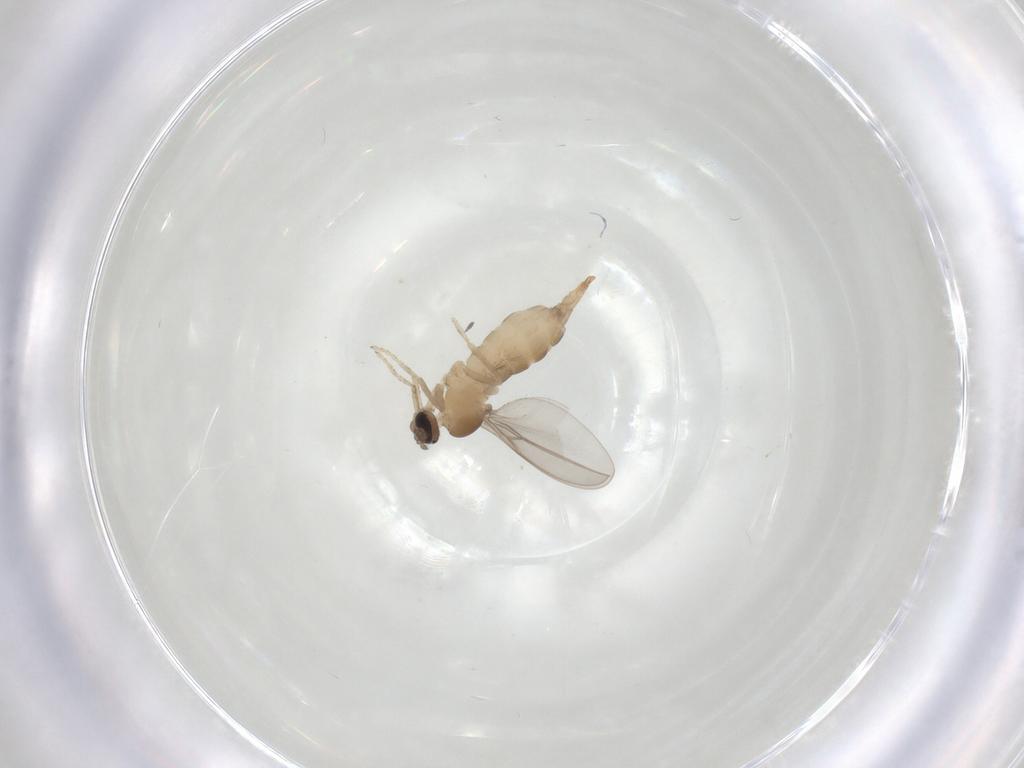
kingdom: Animalia
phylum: Arthropoda
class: Insecta
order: Diptera
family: Cecidomyiidae
